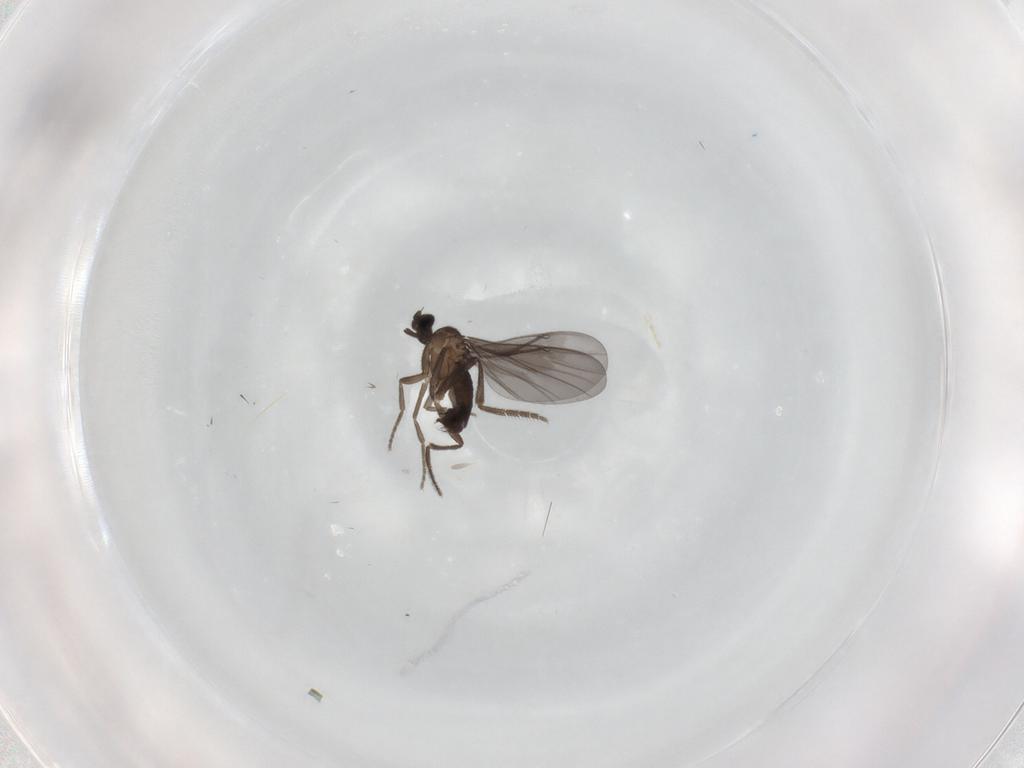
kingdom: Animalia
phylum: Arthropoda
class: Insecta
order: Diptera
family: Phoridae
